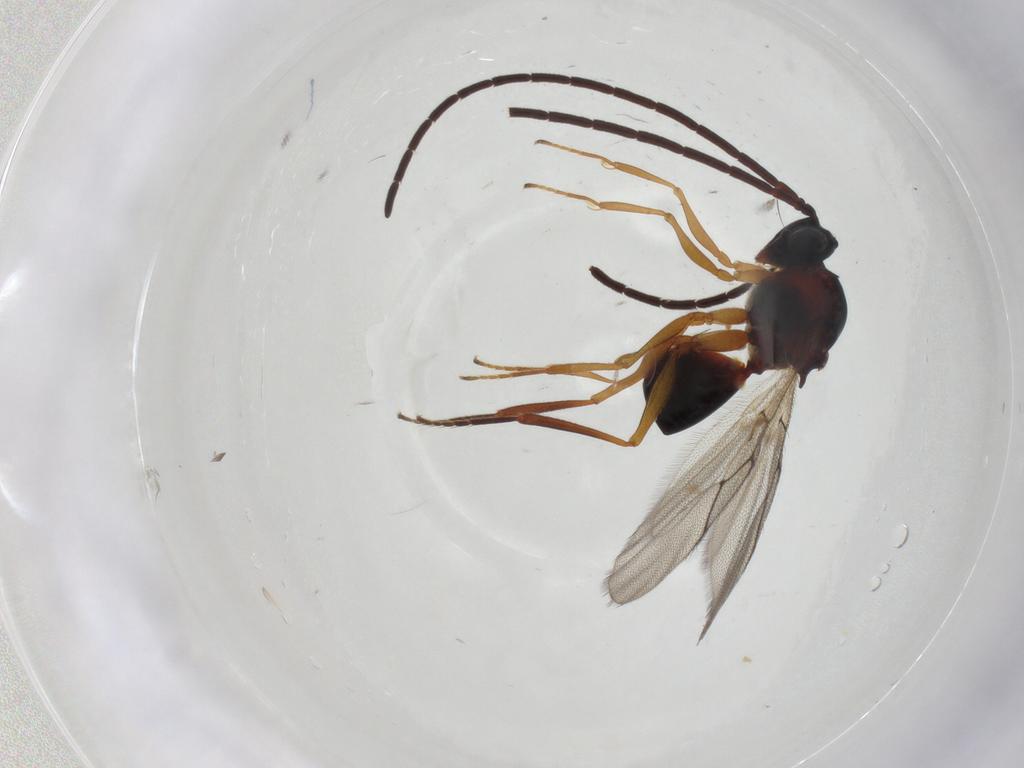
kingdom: Animalia
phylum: Arthropoda
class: Insecta
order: Hymenoptera
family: Figitidae
